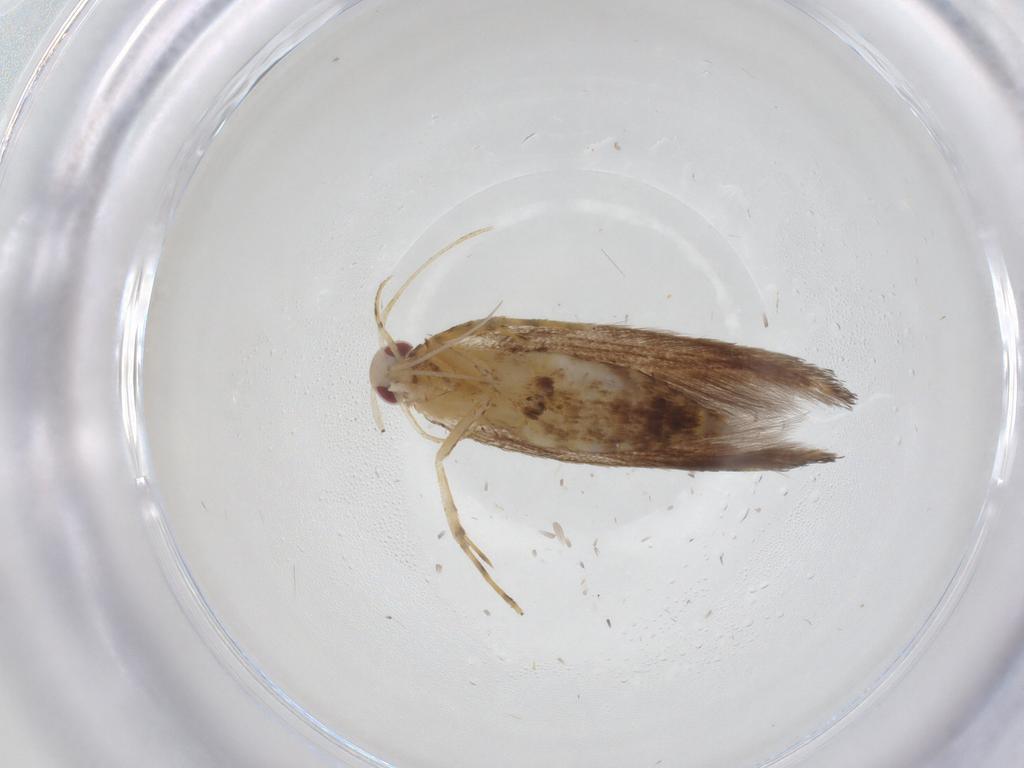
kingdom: Animalia
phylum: Arthropoda
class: Insecta
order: Lepidoptera
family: Cosmopterigidae
